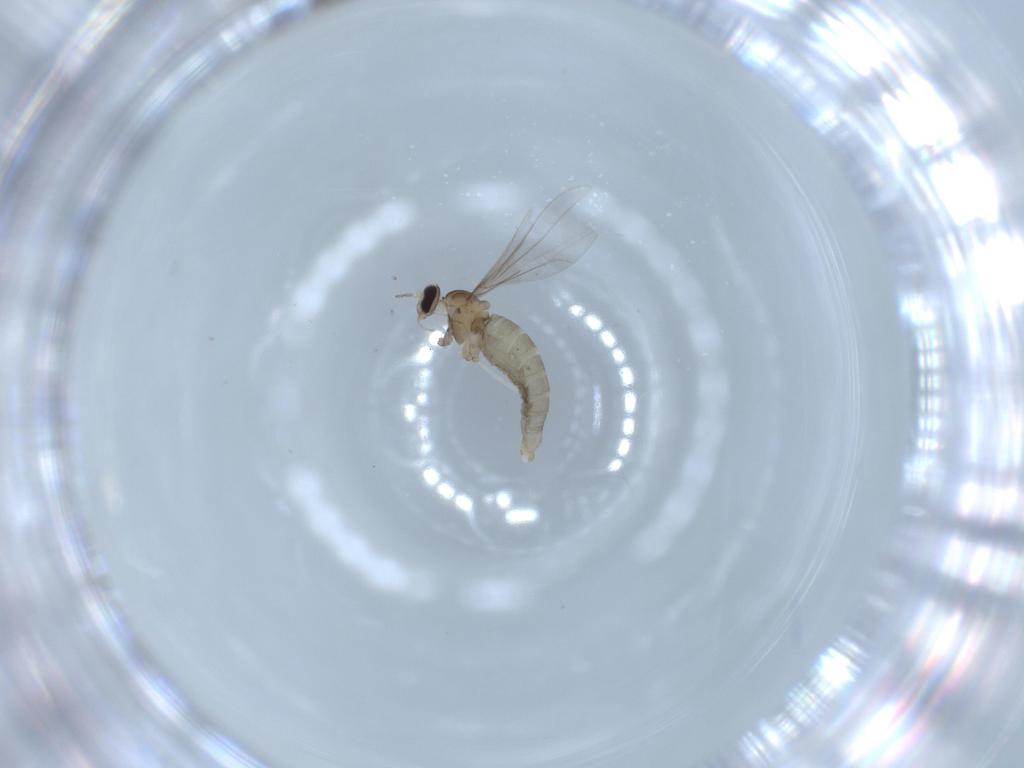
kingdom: Animalia
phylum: Arthropoda
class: Insecta
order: Diptera
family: Cecidomyiidae
